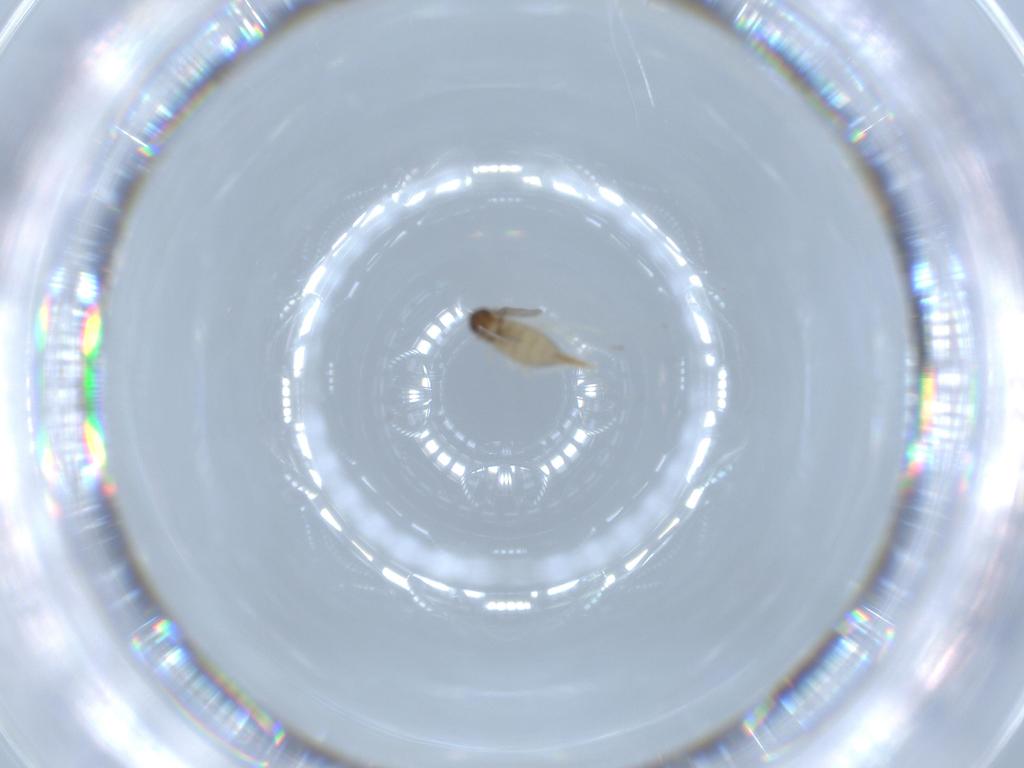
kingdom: Animalia
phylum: Arthropoda
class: Insecta
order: Diptera
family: Chironomidae
